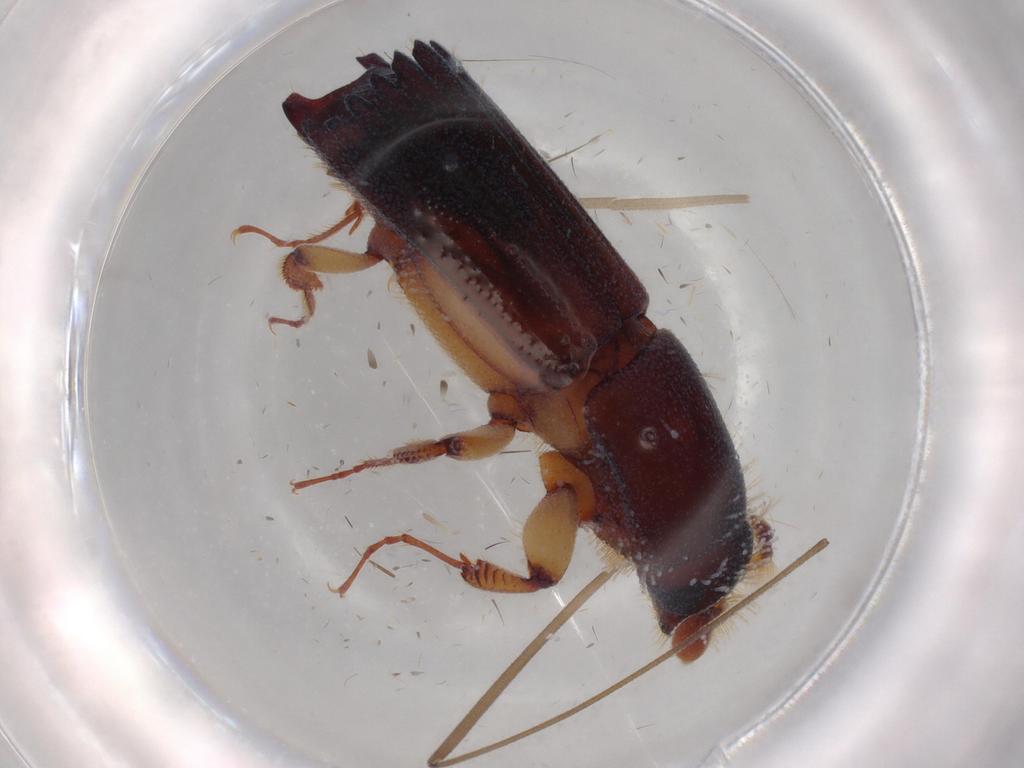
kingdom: Animalia
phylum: Arthropoda
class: Insecta
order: Coleoptera
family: Curculionidae
